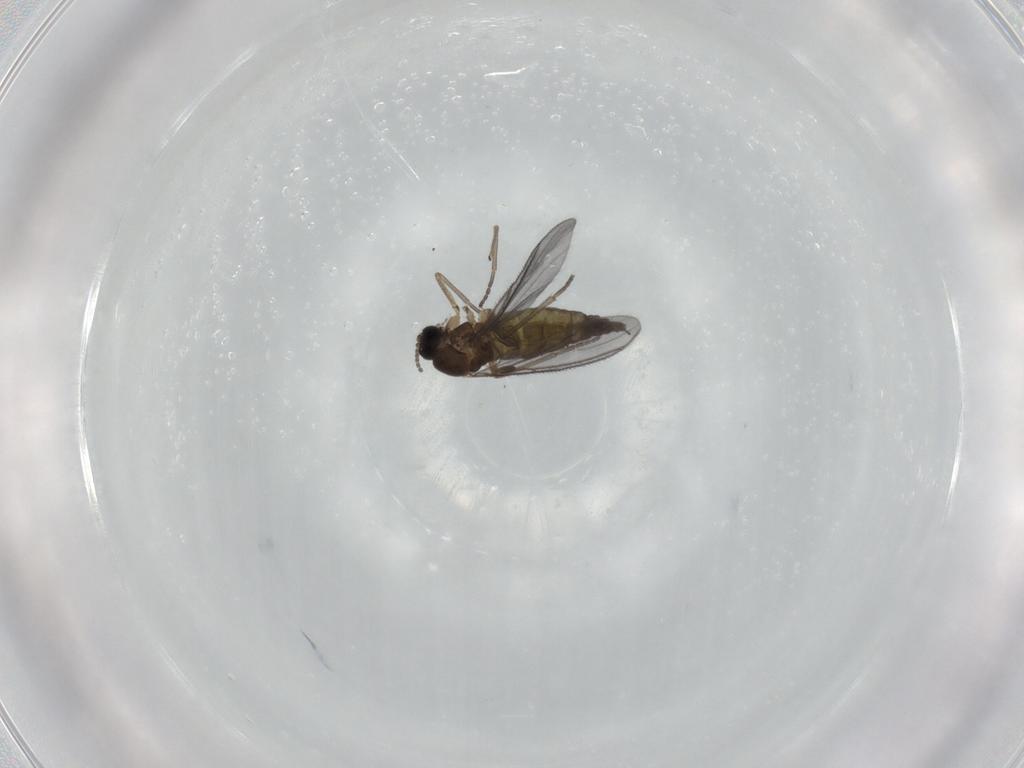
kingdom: Animalia
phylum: Arthropoda
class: Insecta
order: Diptera
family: Sciaridae
